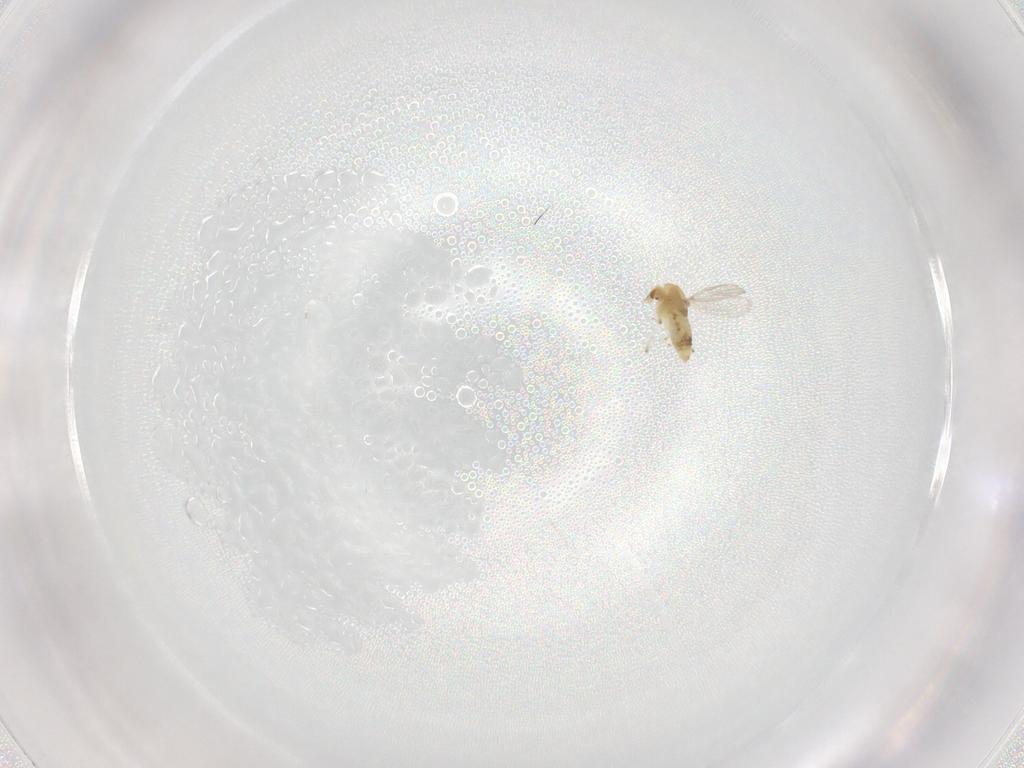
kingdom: Animalia
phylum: Arthropoda
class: Insecta
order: Diptera
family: Chironomidae
